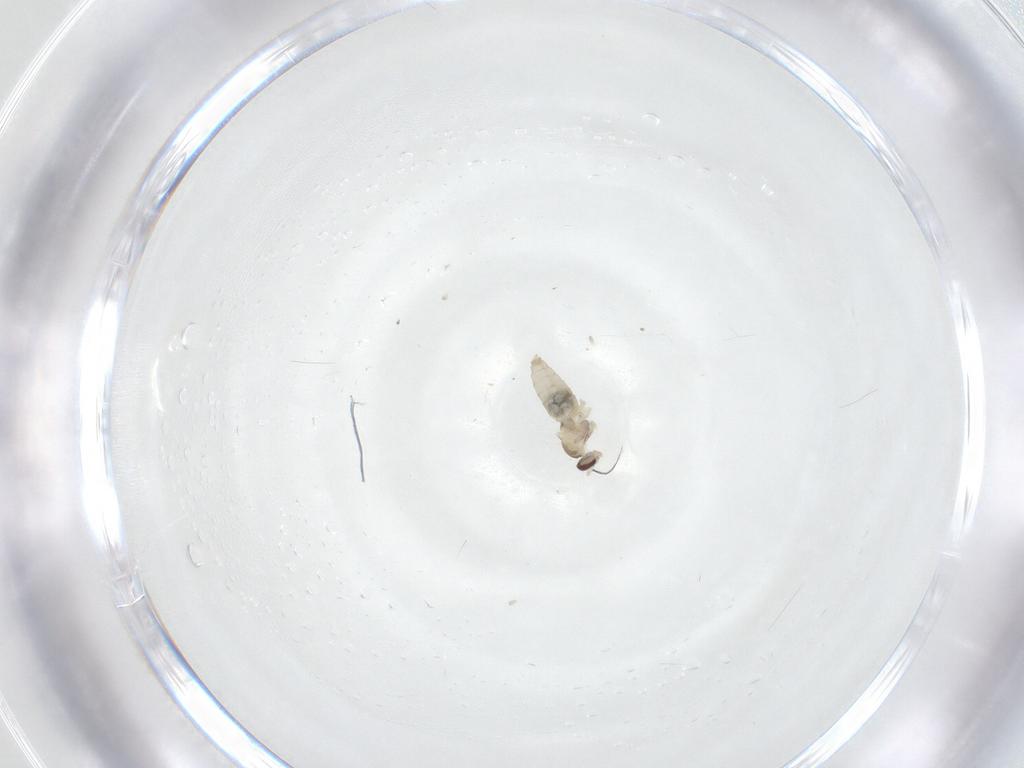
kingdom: Animalia
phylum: Arthropoda
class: Insecta
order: Diptera
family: Cecidomyiidae
